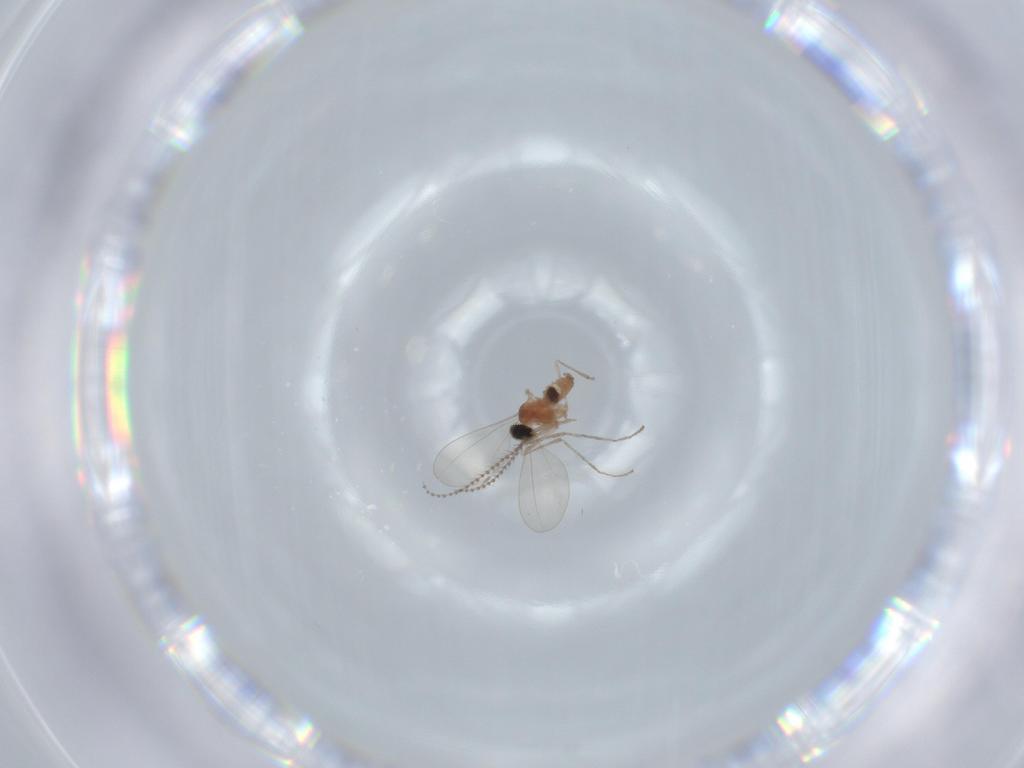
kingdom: Animalia
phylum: Arthropoda
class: Insecta
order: Diptera
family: Cecidomyiidae
